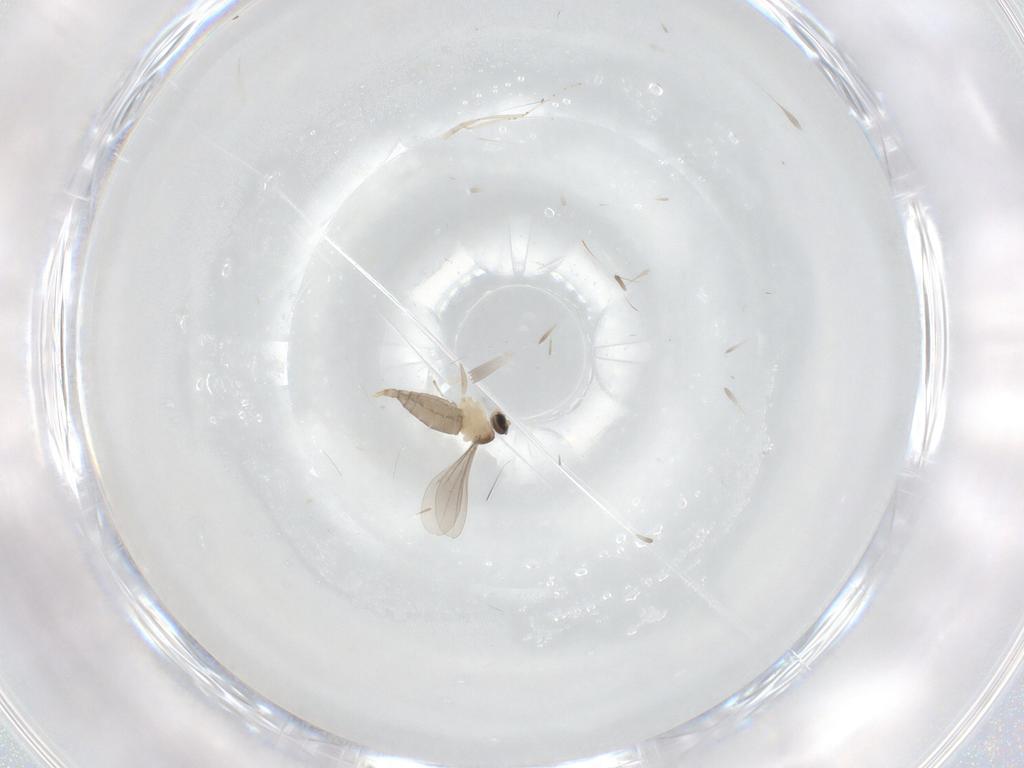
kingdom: Animalia
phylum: Arthropoda
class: Insecta
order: Diptera
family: Cecidomyiidae
